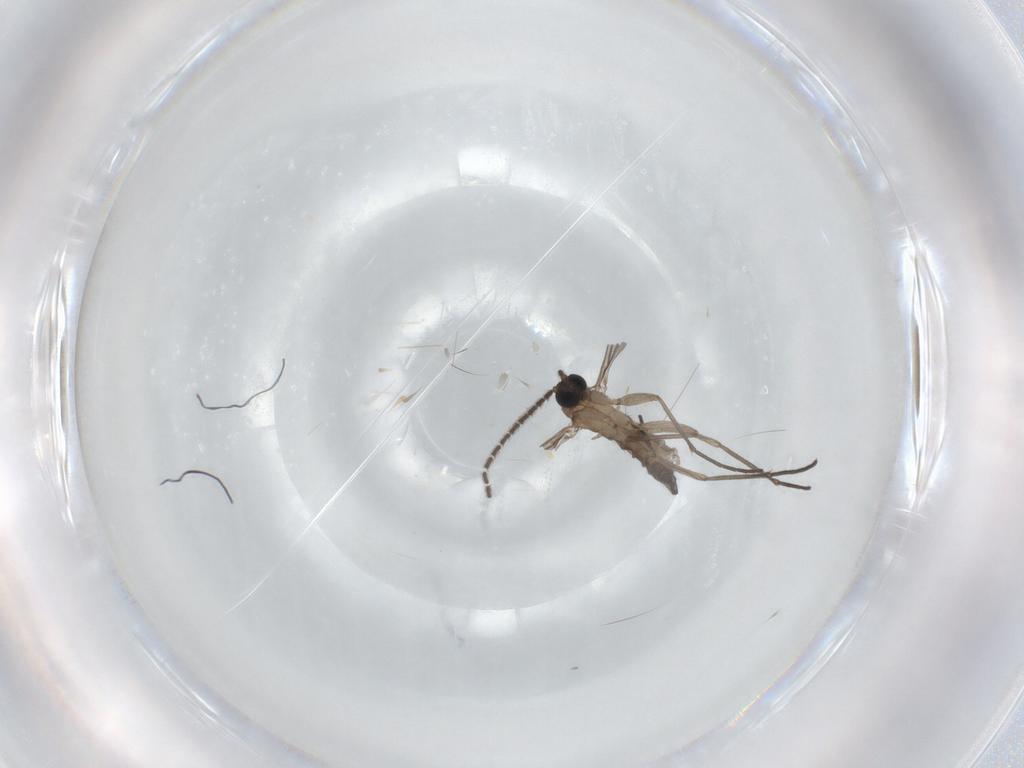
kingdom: Animalia
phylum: Arthropoda
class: Insecta
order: Diptera
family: Sciaridae
